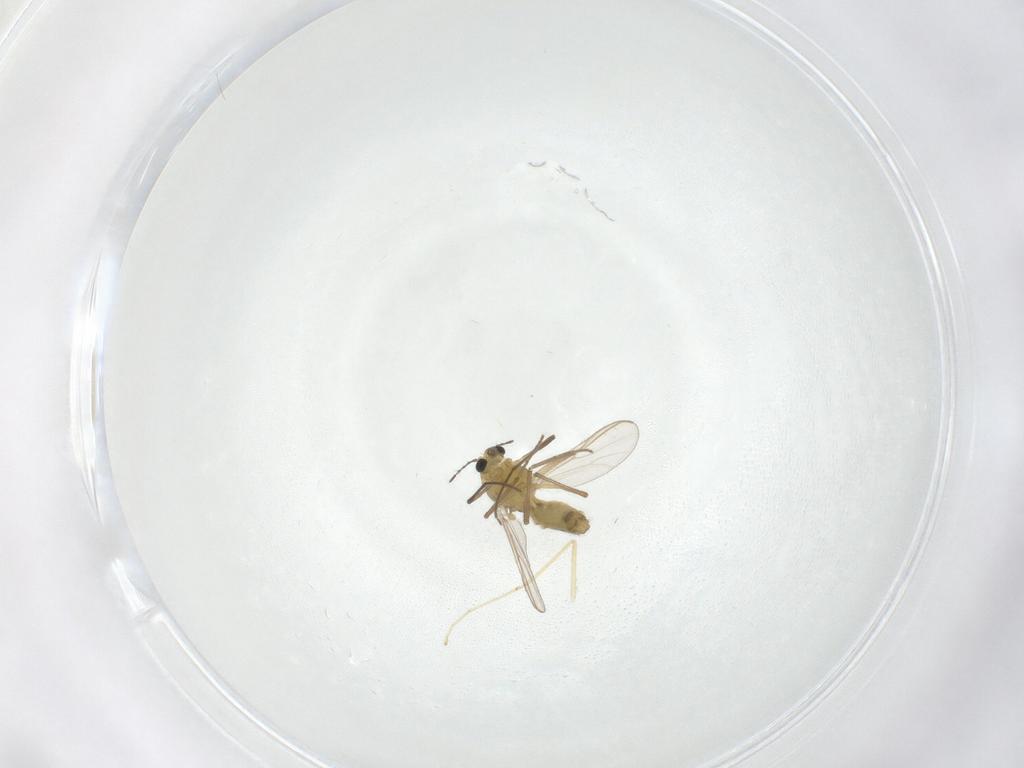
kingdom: Animalia
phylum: Arthropoda
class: Insecta
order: Diptera
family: Chironomidae
